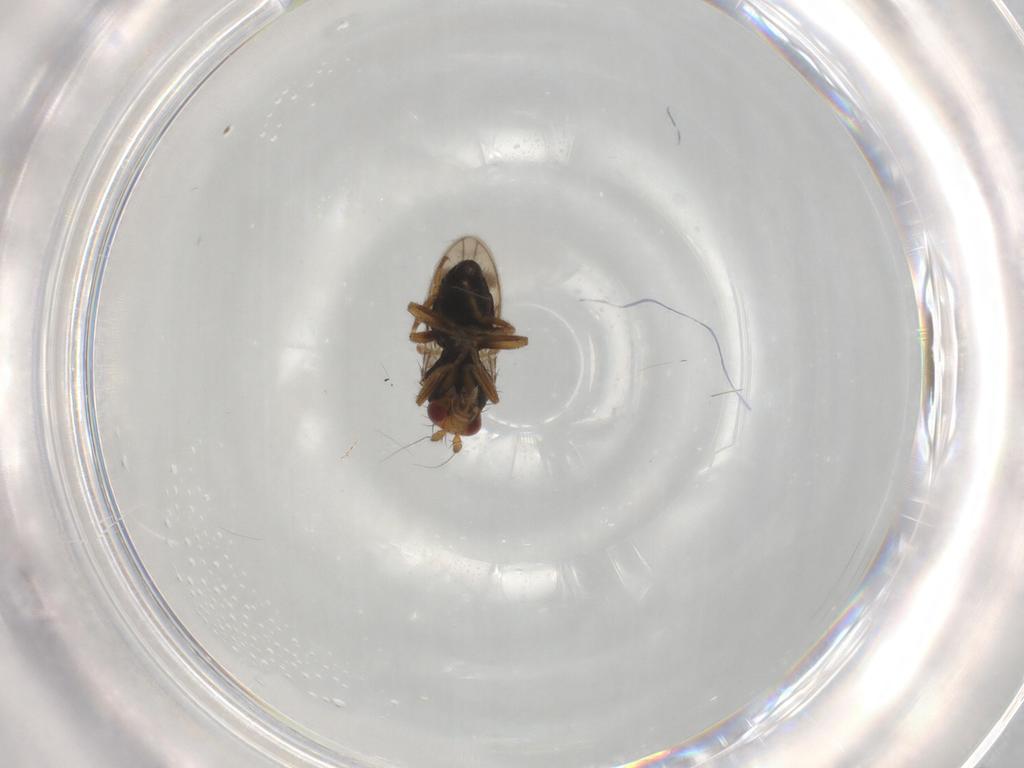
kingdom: Animalia
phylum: Arthropoda
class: Insecta
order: Diptera
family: Sphaeroceridae
